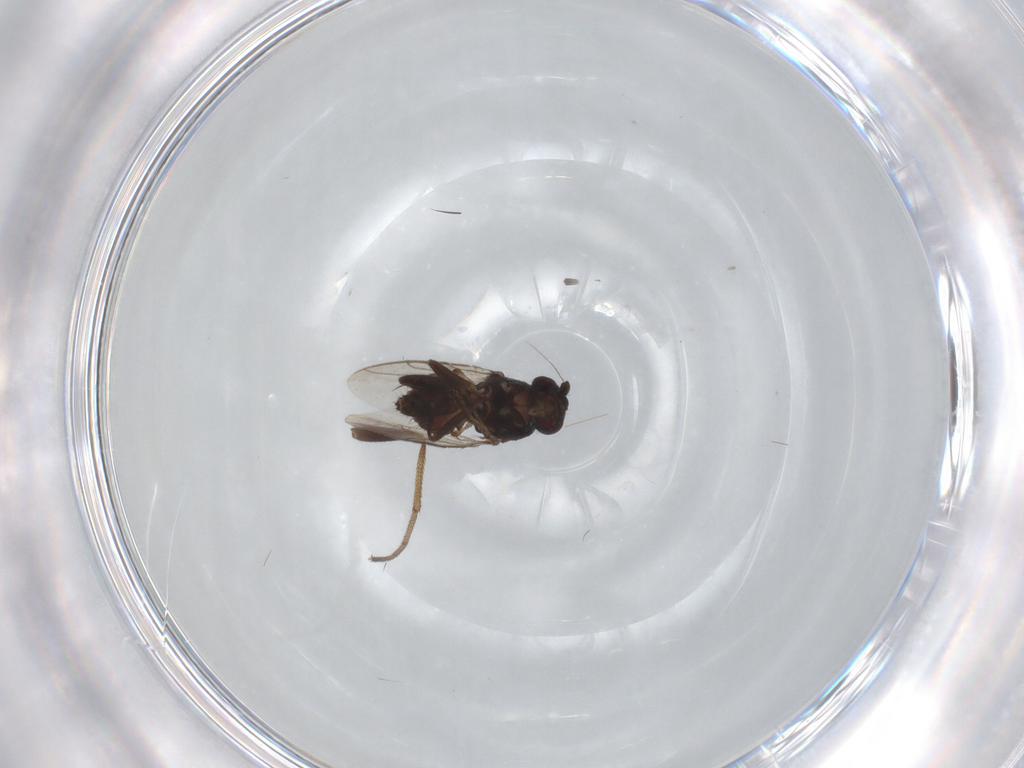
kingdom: Animalia
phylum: Arthropoda
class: Insecta
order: Diptera
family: Sphaeroceridae
